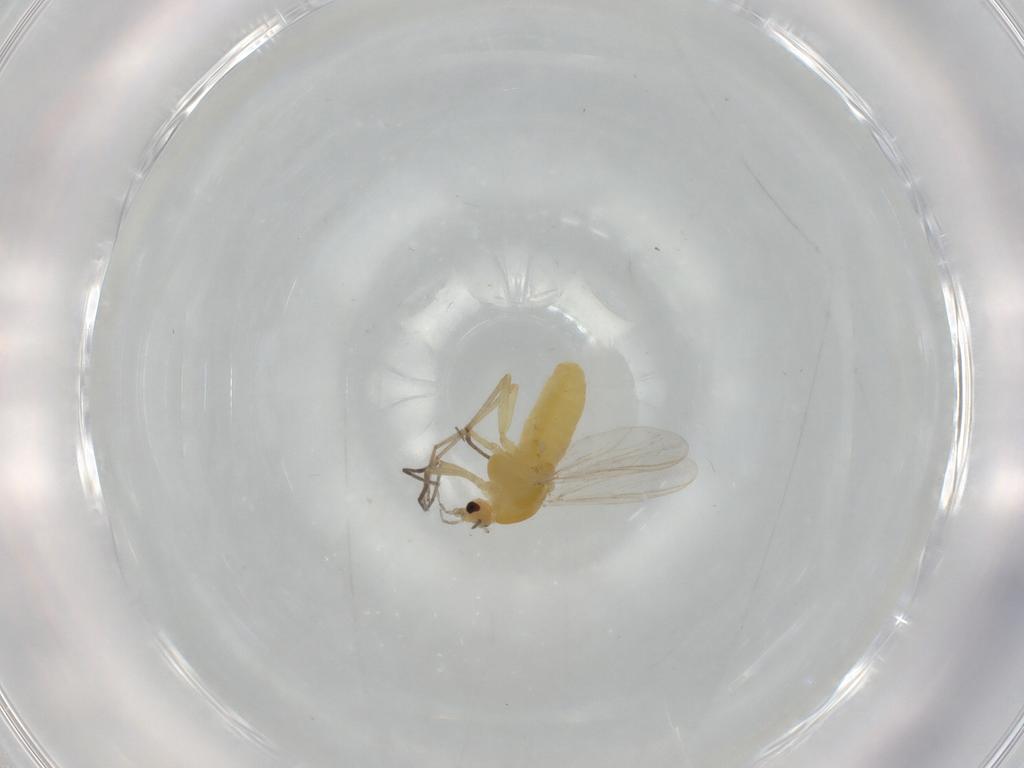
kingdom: Animalia
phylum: Arthropoda
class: Insecta
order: Diptera
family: Chironomidae
